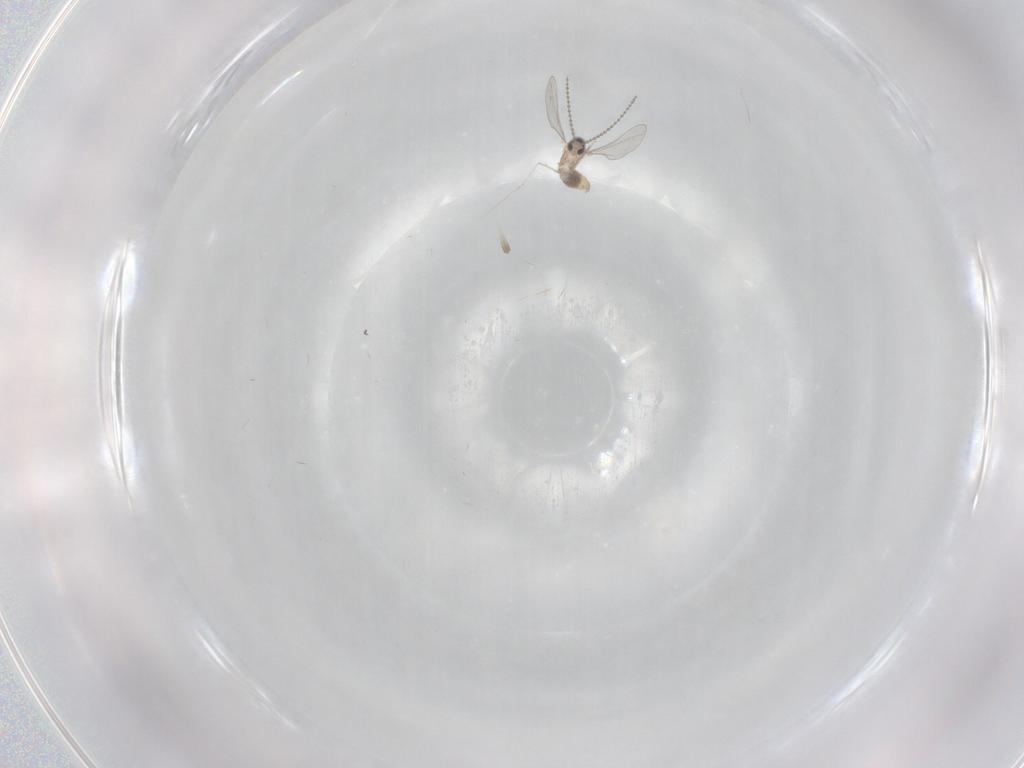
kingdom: Animalia
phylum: Arthropoda
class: Insecta
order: Diptera
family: Cecidomyiidae
